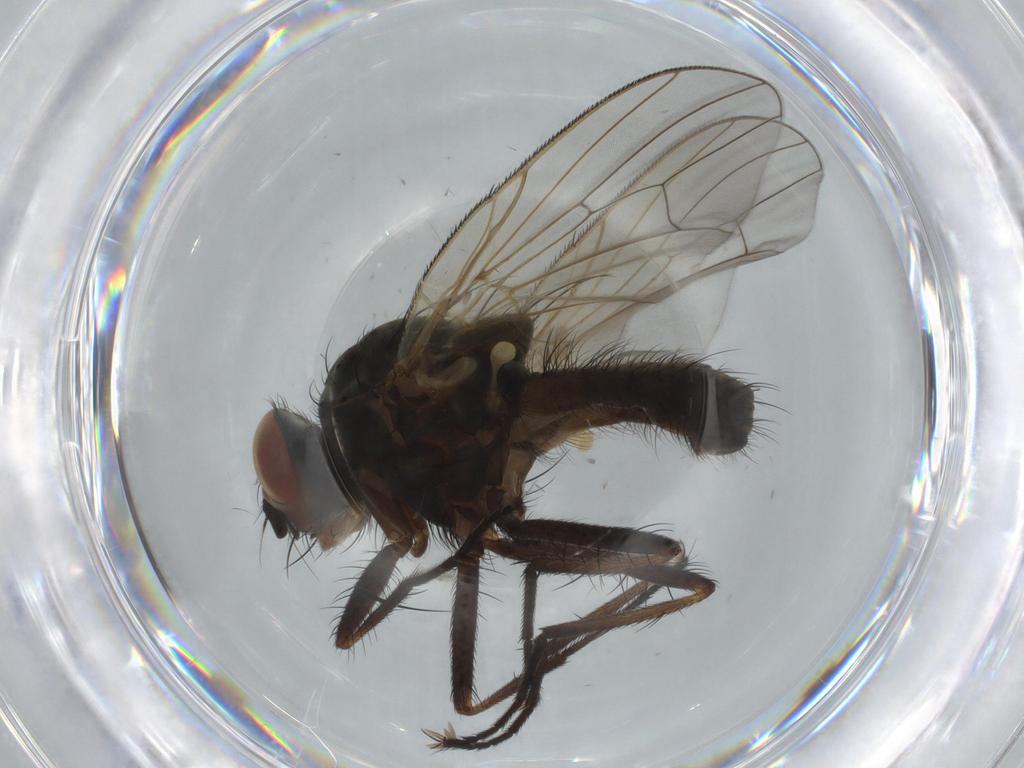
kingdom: Animalia
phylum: Arthropoda
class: Insecta
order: Diptera
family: Anthomyiidae
